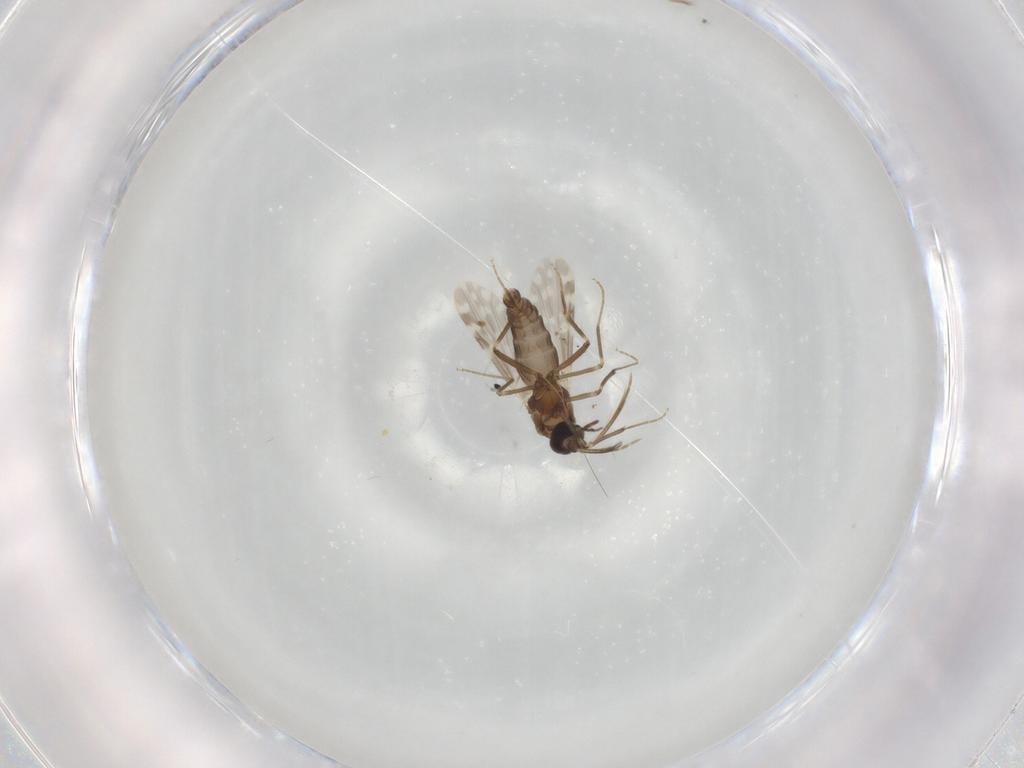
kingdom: Animalia
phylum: Arthropoda
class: Insecta
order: Diptera
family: Ceratopogonidae
